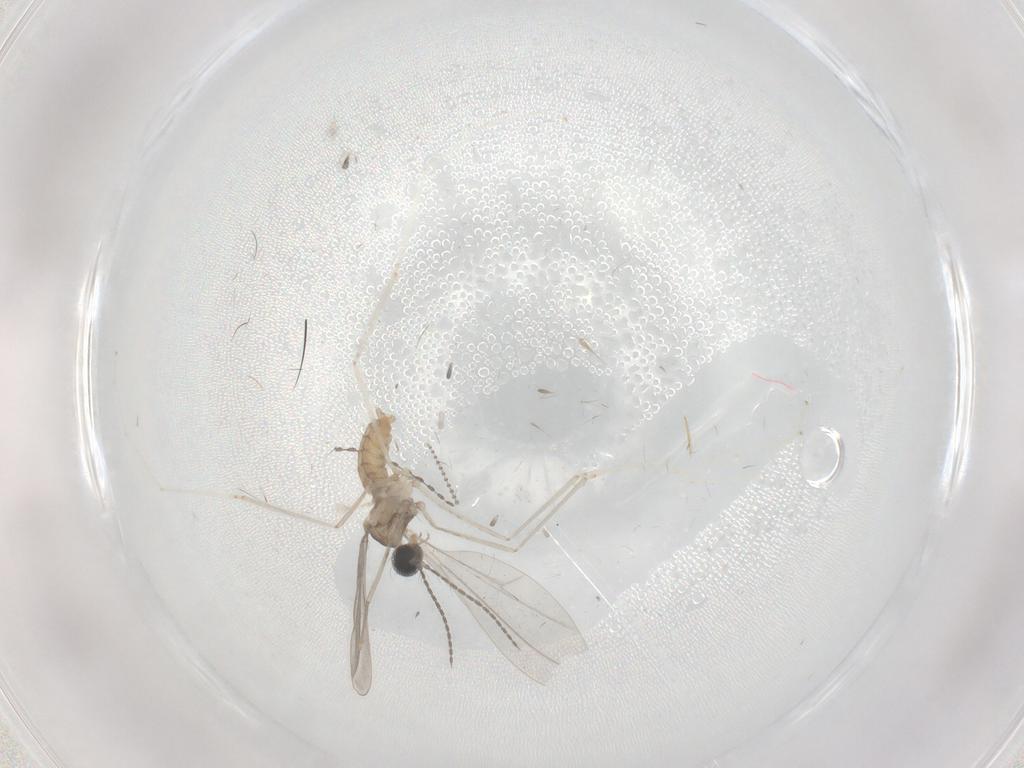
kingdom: Animalia
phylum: Arthropoda
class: Insecta
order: Diptera
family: Cecidomyiidae
